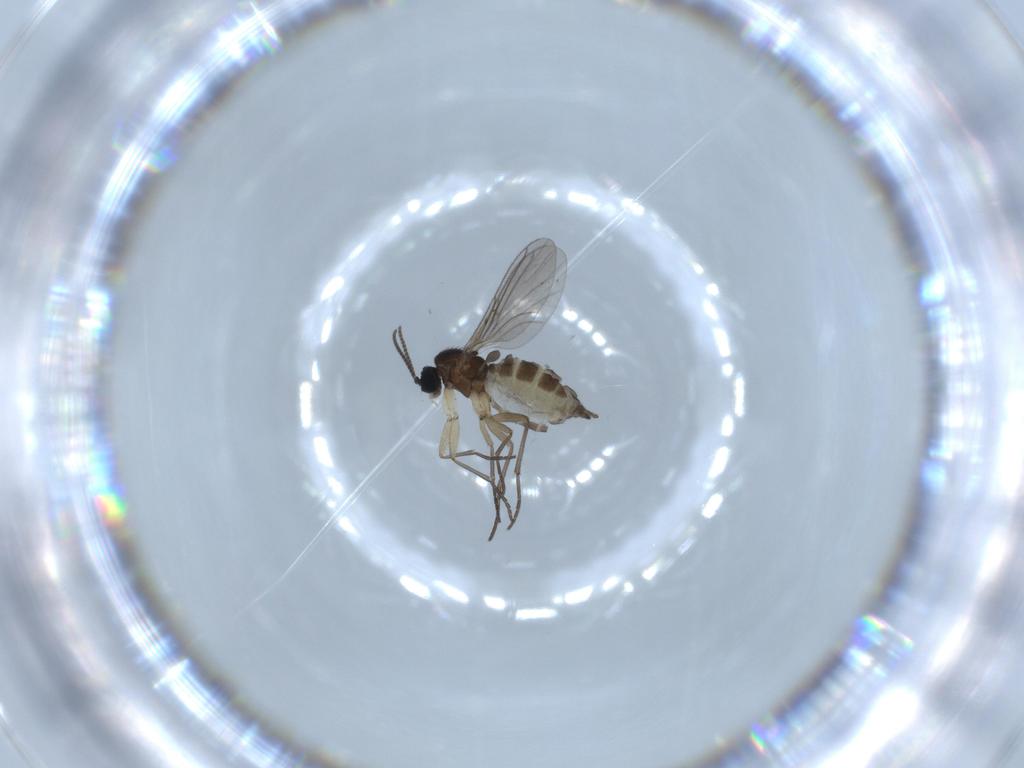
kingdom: Animalia
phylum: Arthropoda
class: Insecta
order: Diptera
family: Sciaridae
